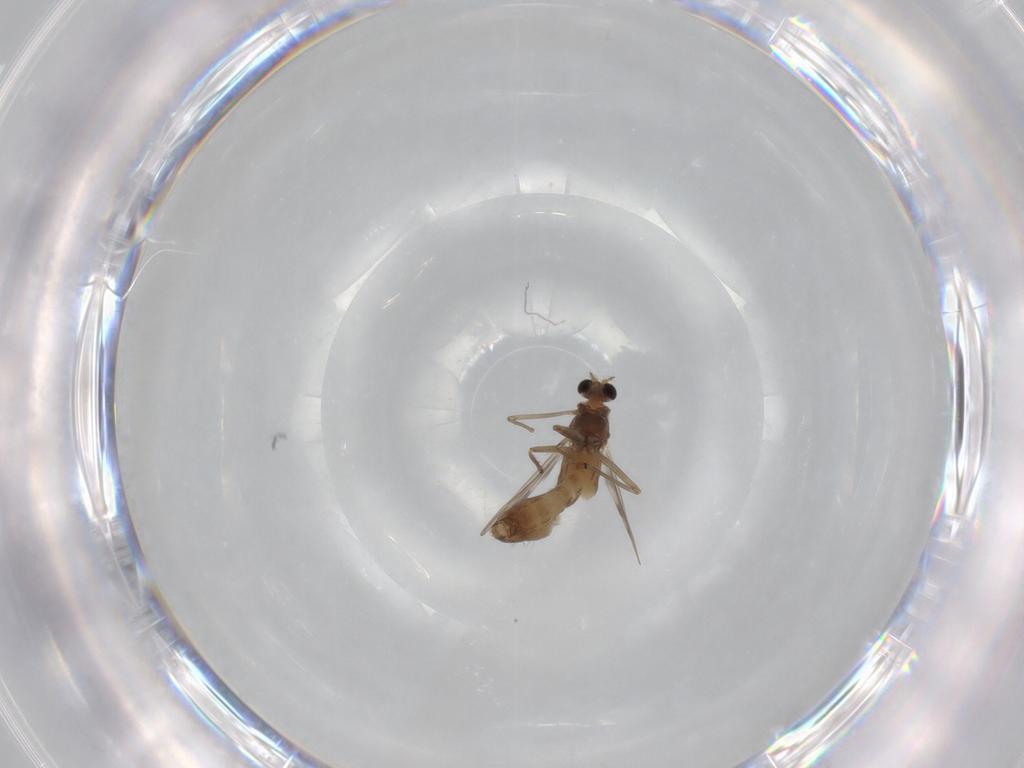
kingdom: Animalia
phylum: Arthropoda
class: Insecta
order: Diptera
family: Chironomidae
